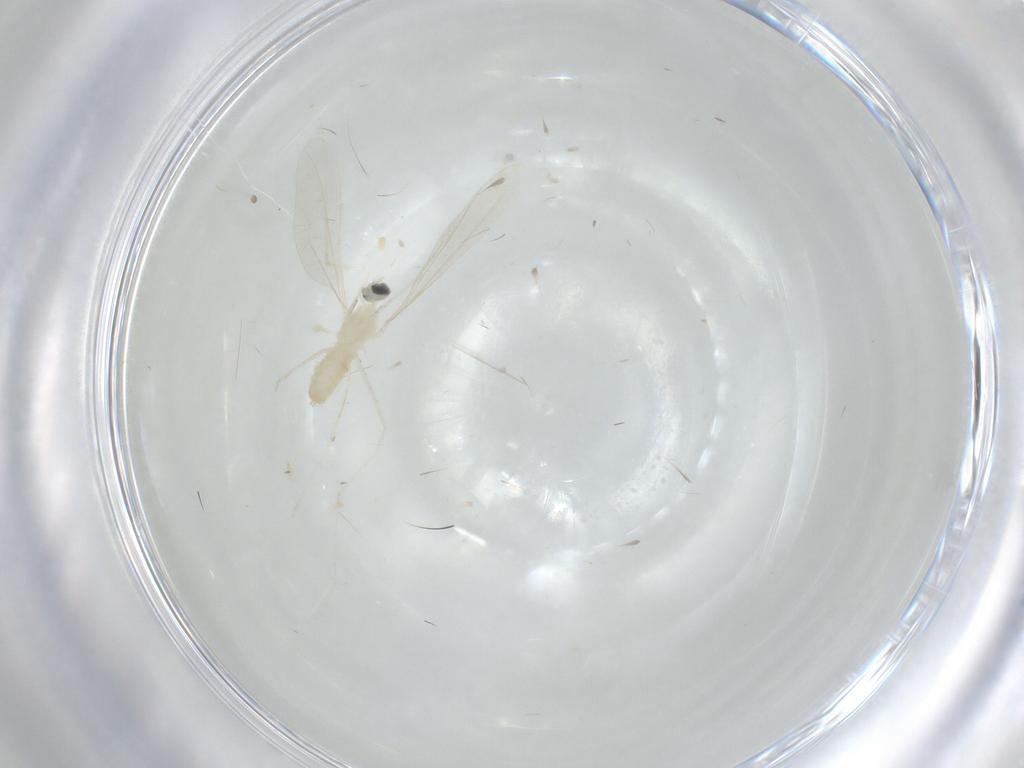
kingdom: Animalia
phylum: Arthropoda
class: Insecta
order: Diptera
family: Cecidomyiidae
